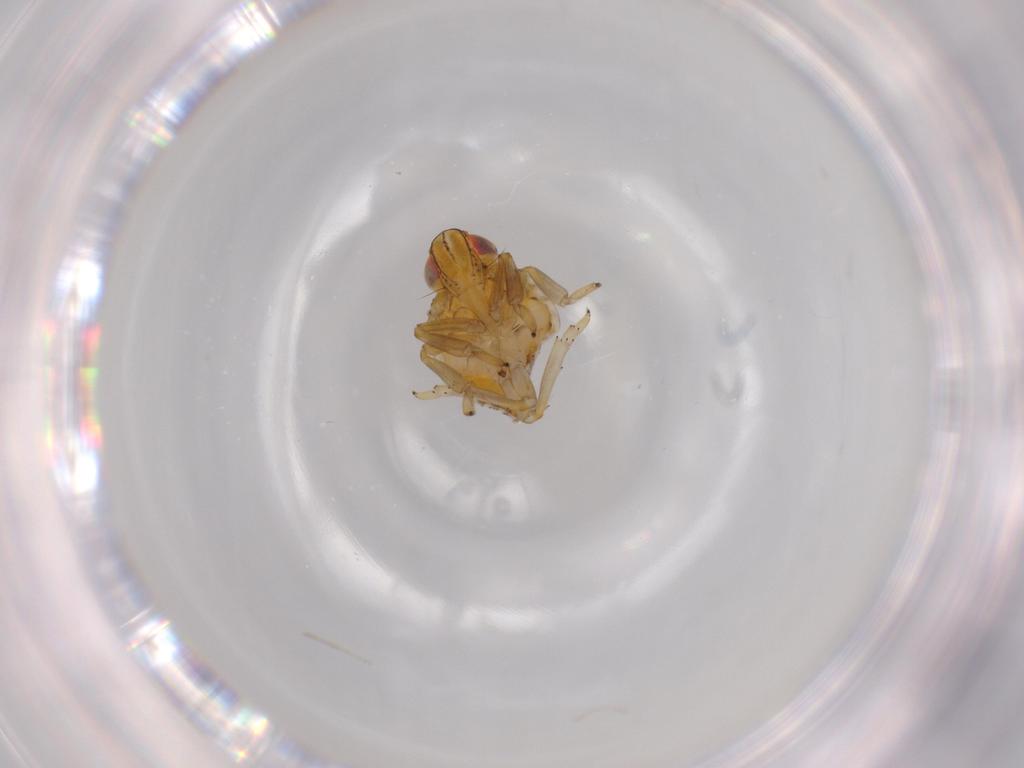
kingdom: Animalia
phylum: Arthropoda
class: Insecta
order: Hemiptera
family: Issidae
